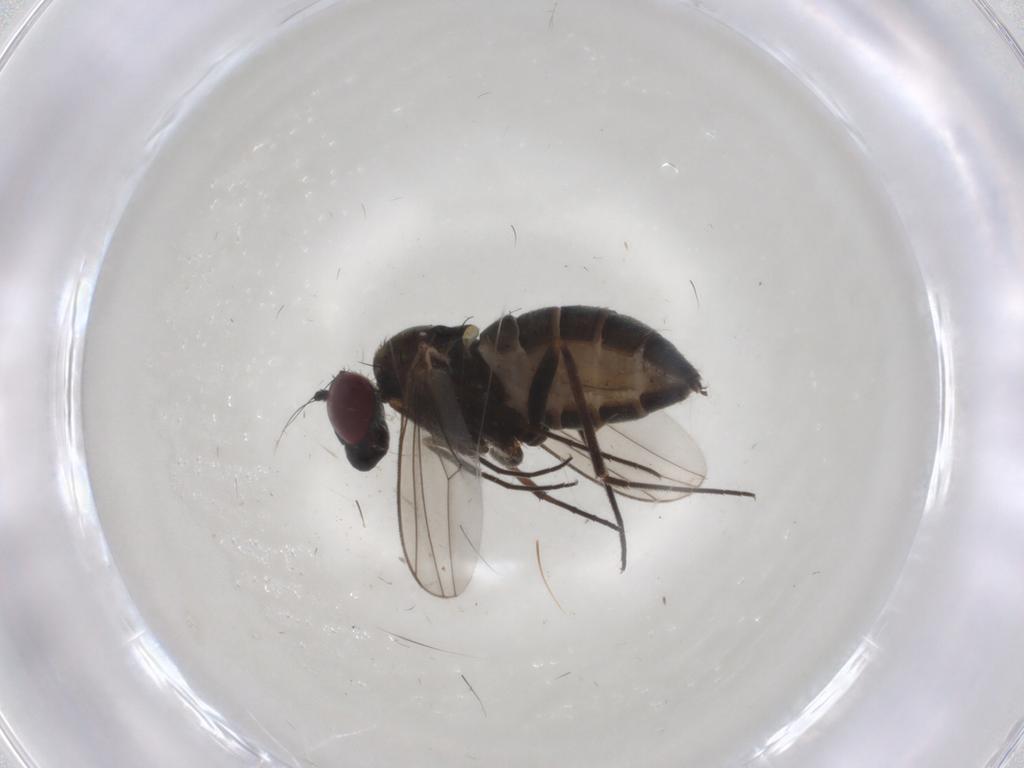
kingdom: Animalia
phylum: Arthropoda
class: Insecta
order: Diptera
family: Dolichopodidae
